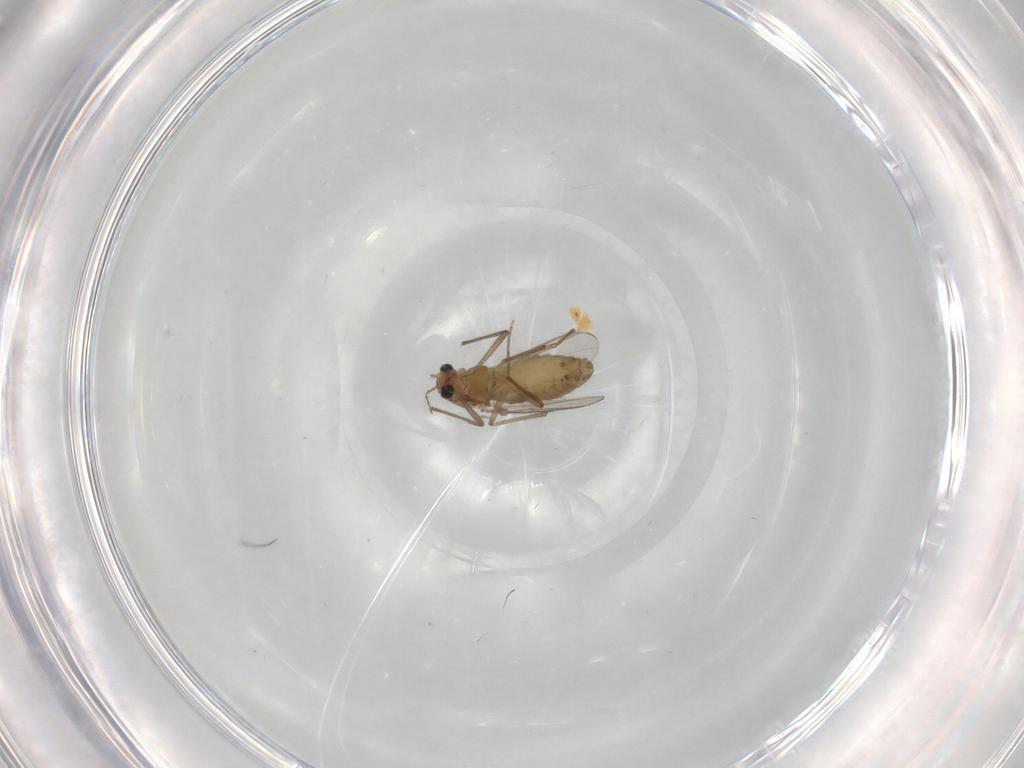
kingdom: Animalia
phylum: Arthropoda
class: Insecta
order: Diptera
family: Chironomidae
